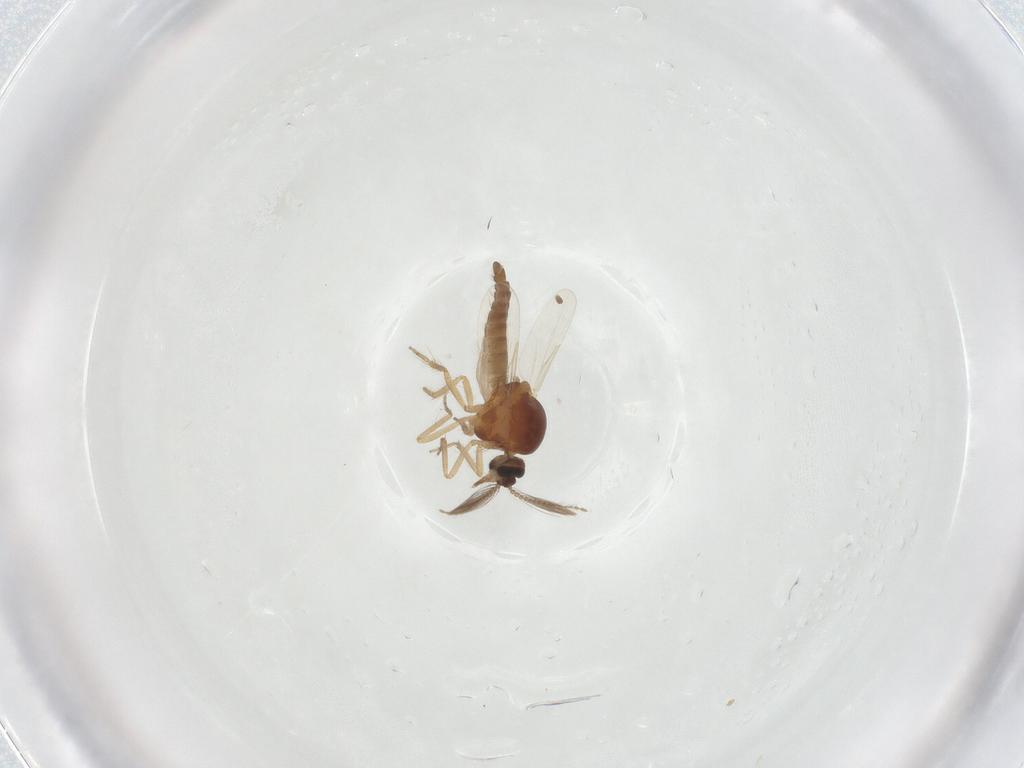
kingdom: Animalia
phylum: Arthropoda
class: Insecta
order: Diptera
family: Ceratopogonidae
